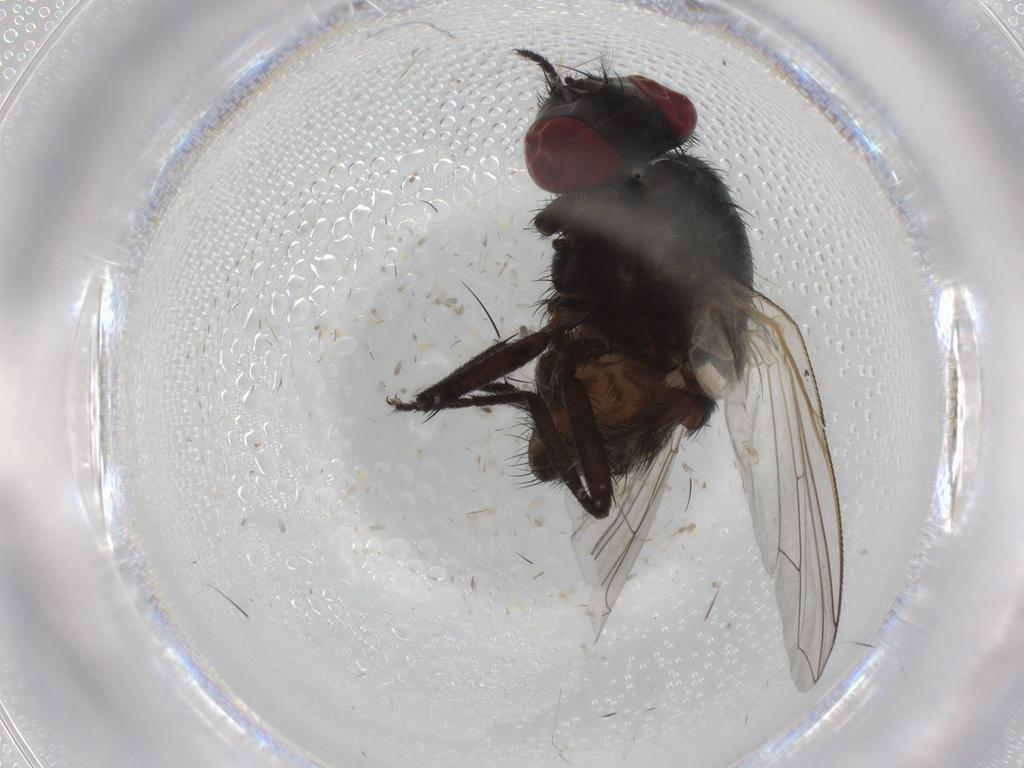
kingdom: Animalia
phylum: Arthropoda
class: Insecta
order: Diptera
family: Muscidae
